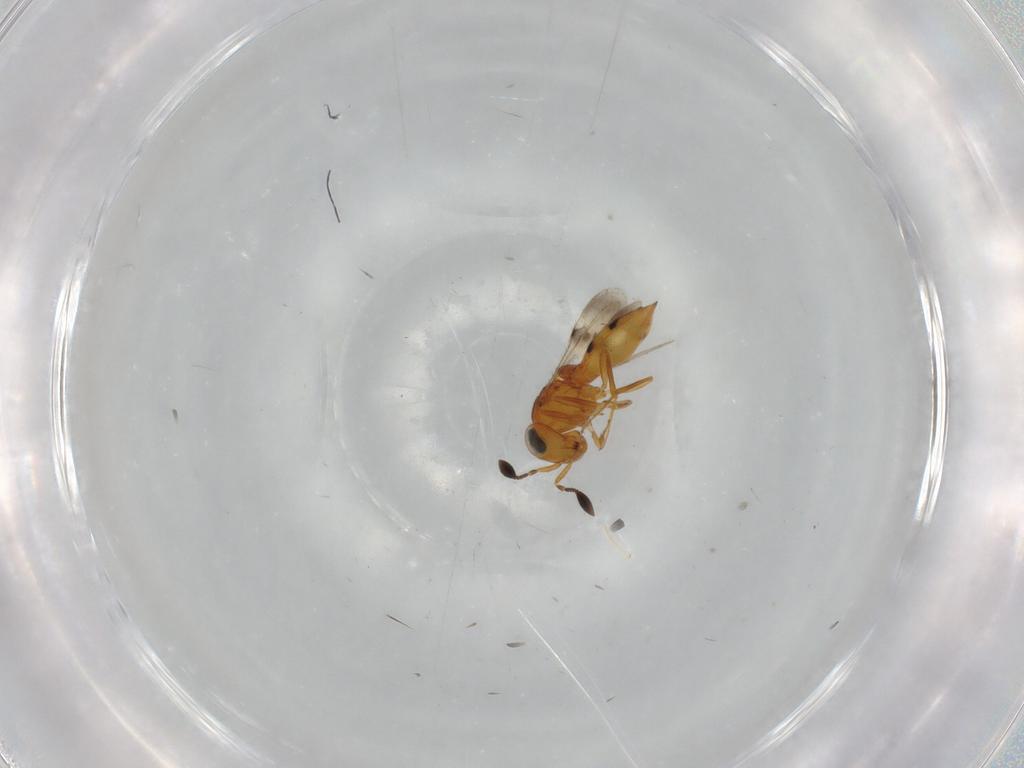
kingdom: Animalia
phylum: Arthropoda
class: Insecta
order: Hymenoptera
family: Scelionidae
